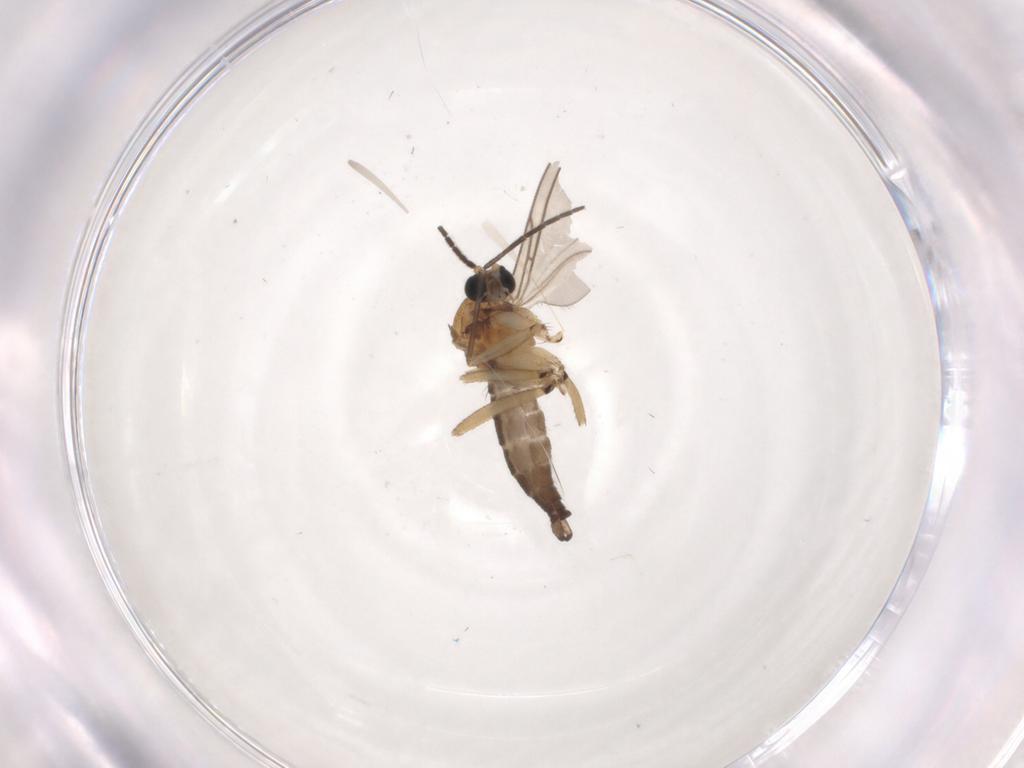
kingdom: Animalia
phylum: Arthropoda
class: Insecta
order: Diptera
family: Sciaridae
